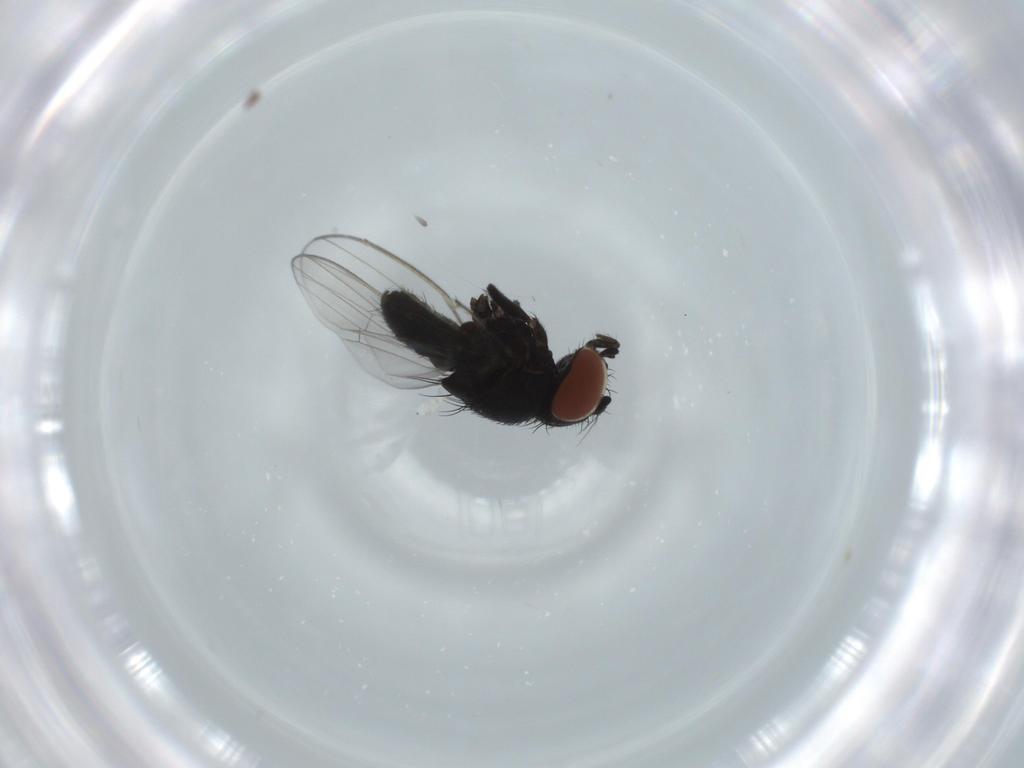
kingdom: Animalia
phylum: Arthropoda
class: Insecta
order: Diptera
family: Milichiidae
